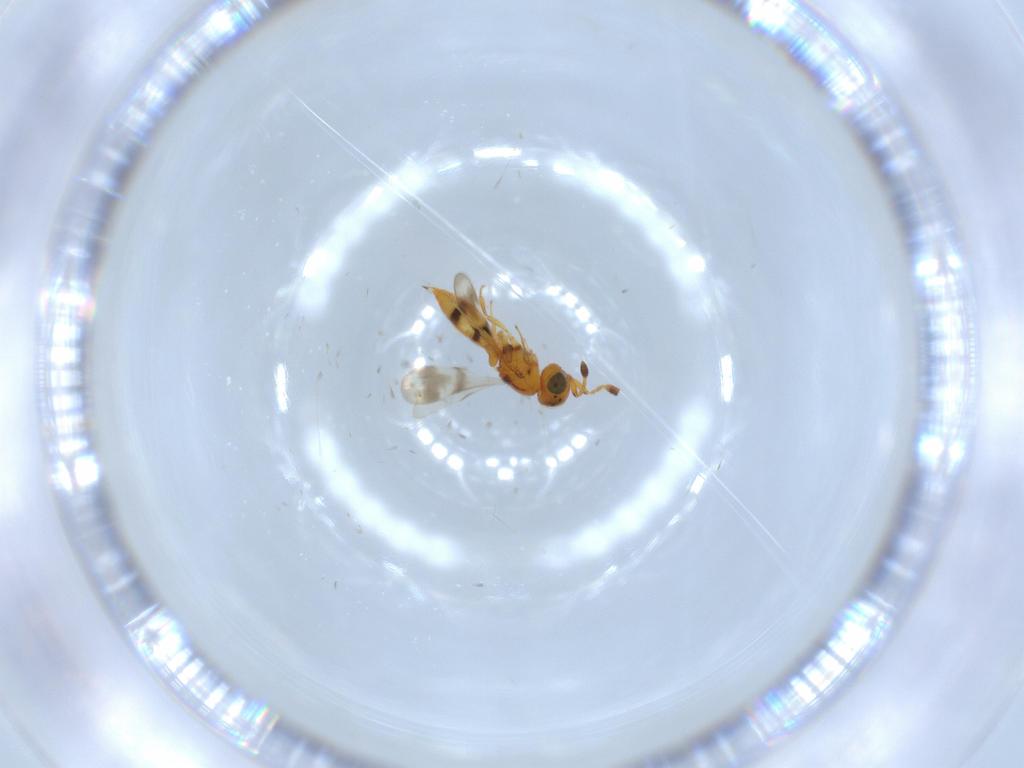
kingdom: Animalia
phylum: Arthropoda
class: Insecta
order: Hymenoptera
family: Scelionidae
